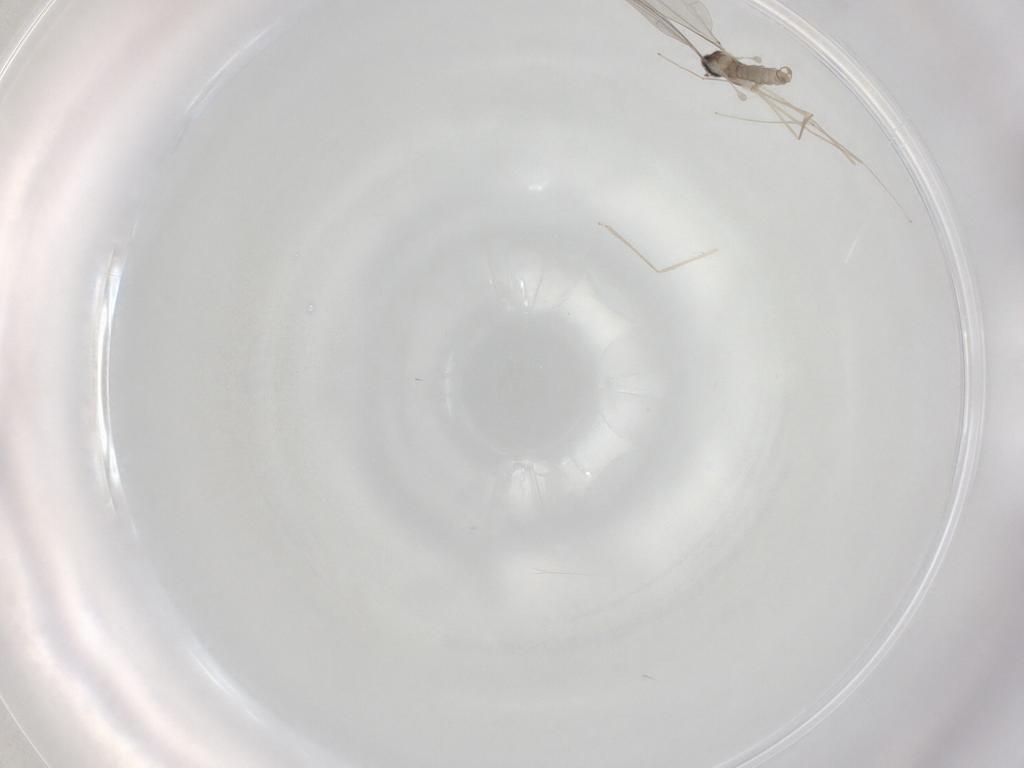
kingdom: Animalia
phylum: Arthropoda
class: Insecta
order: Diptera
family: Cecidomyiidae
